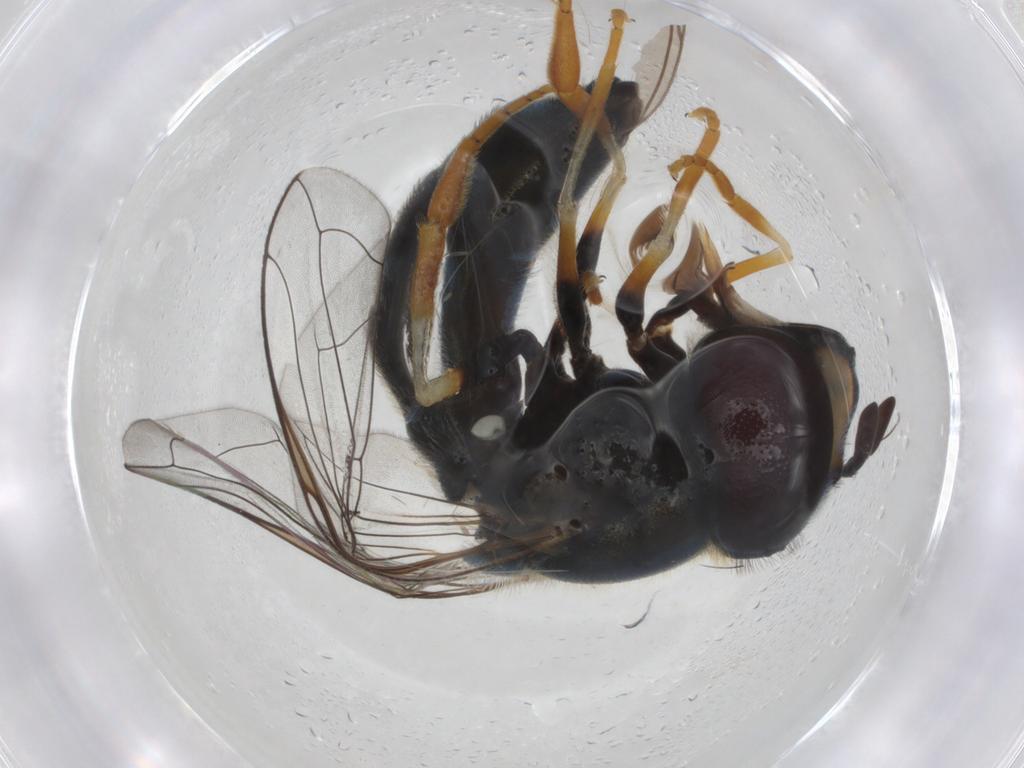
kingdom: Animalia
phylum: Arthropoda
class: Insecta
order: Diptera
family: Syrphidae
